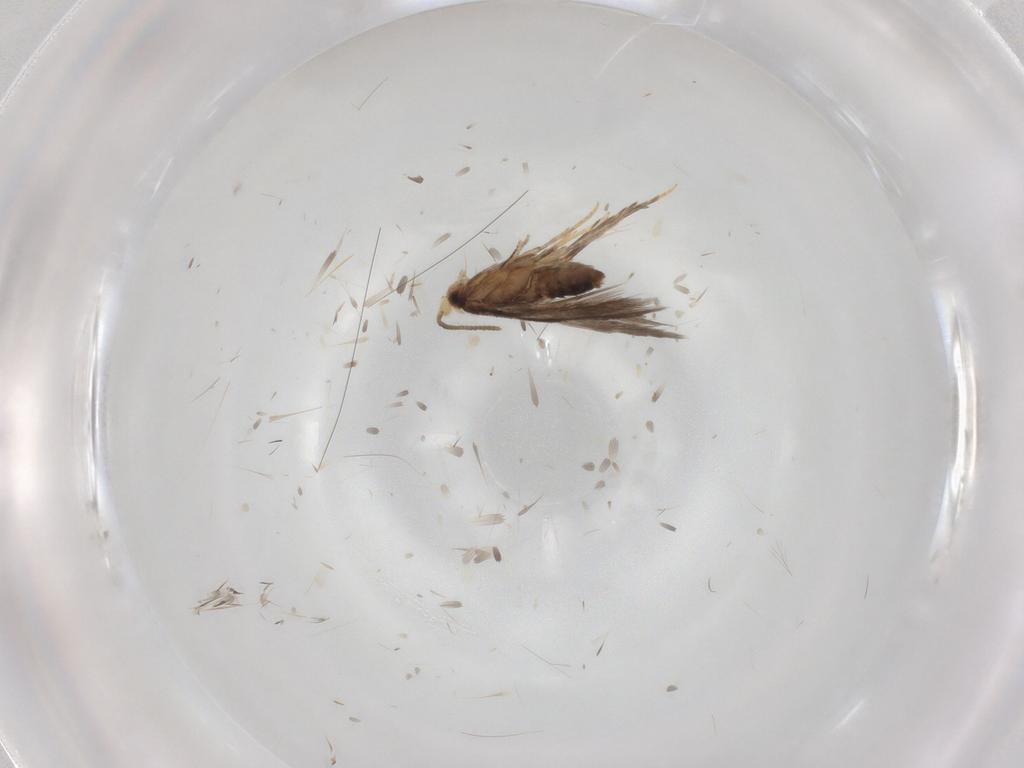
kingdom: Animalia
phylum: Arthropoda
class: Insecta
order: Lepidoptera
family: Nepticulidae
